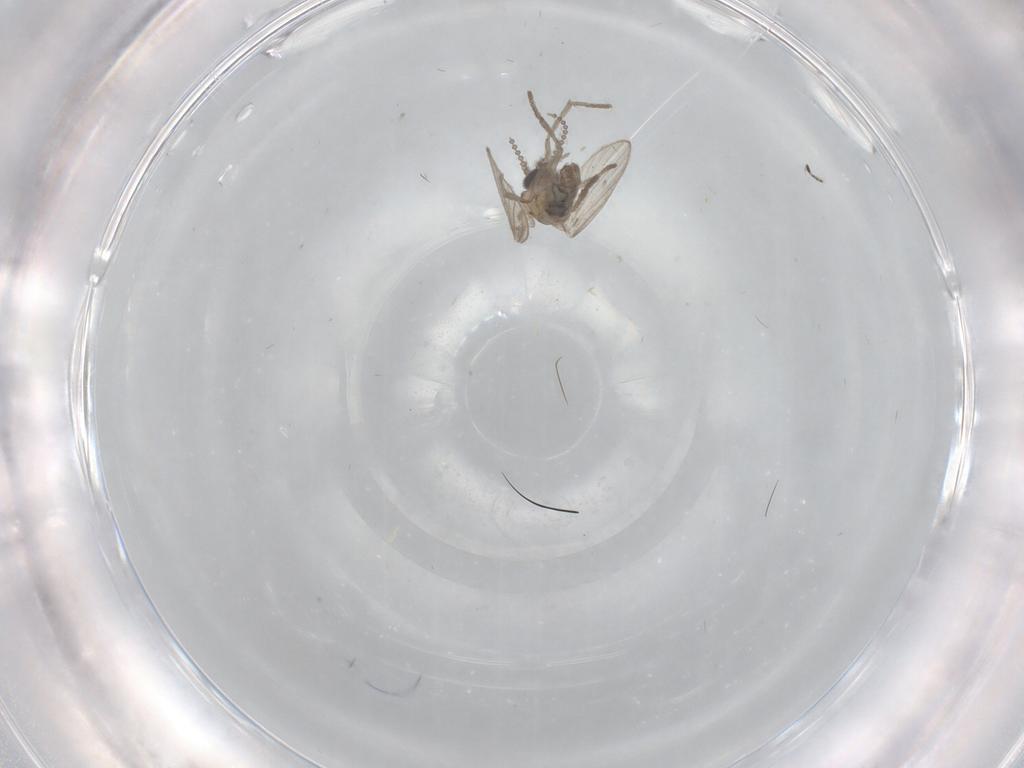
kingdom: Animalia
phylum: Arthropoda
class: Insecta
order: Diptera
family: Psychodidae
